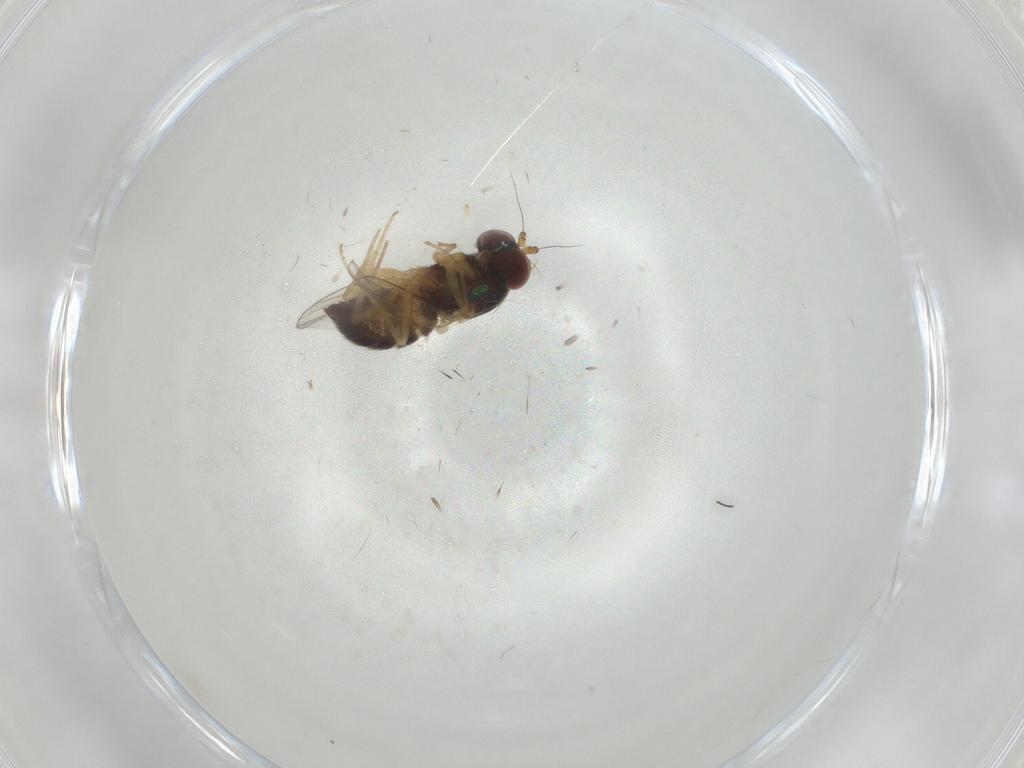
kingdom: Animalia
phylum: Arthropoda
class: Insecta
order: Diptera
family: Dolichopodidae
